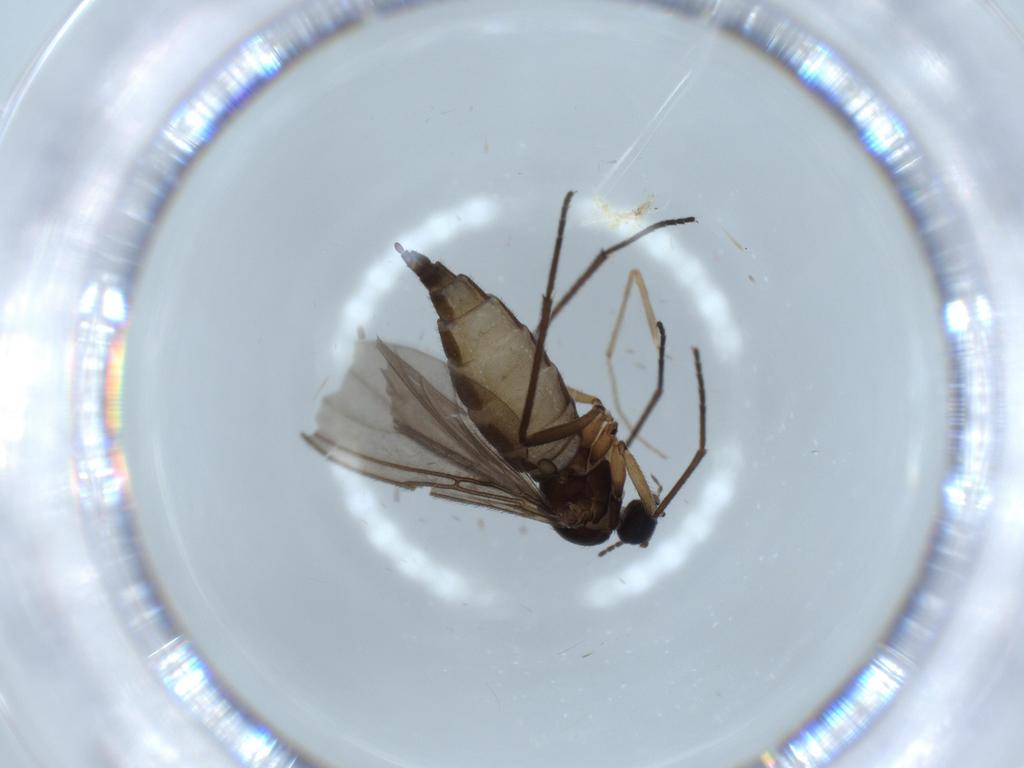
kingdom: Animalia
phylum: Arthropoda
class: Insecta
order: Diptera
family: Sciaridae
